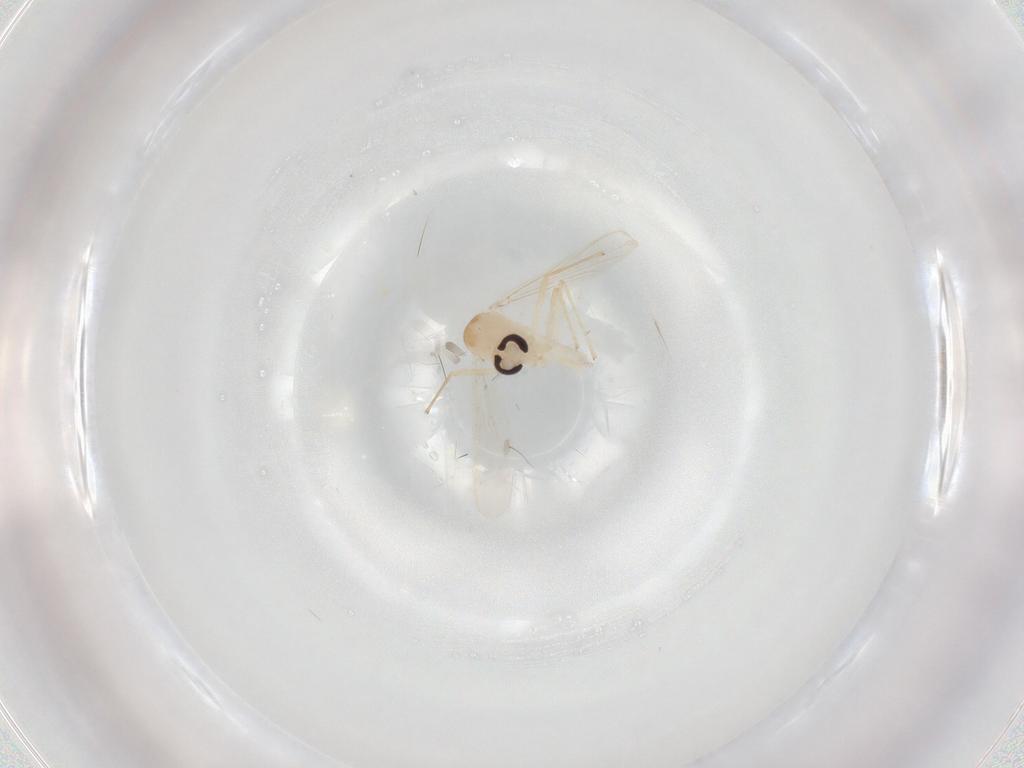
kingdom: Animalia
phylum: Arthropoda
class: Insecta
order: Diptera
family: Chironomidae
